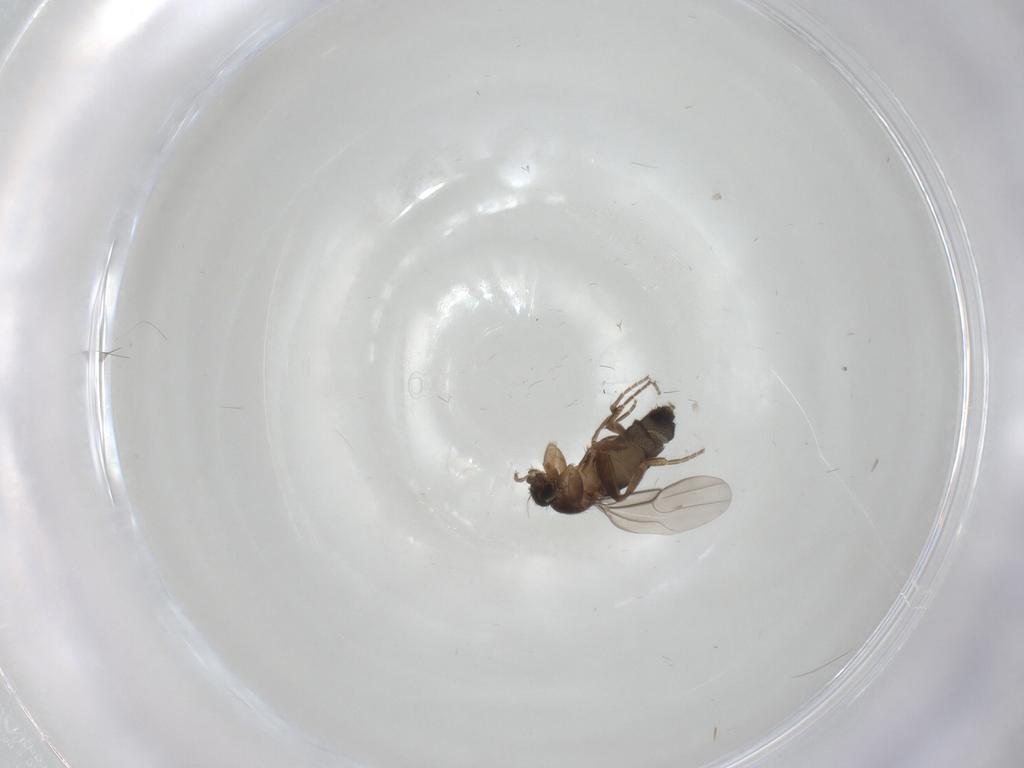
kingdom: Animalia
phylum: Arthropoda
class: Insecta
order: Diptera
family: Phoridae
